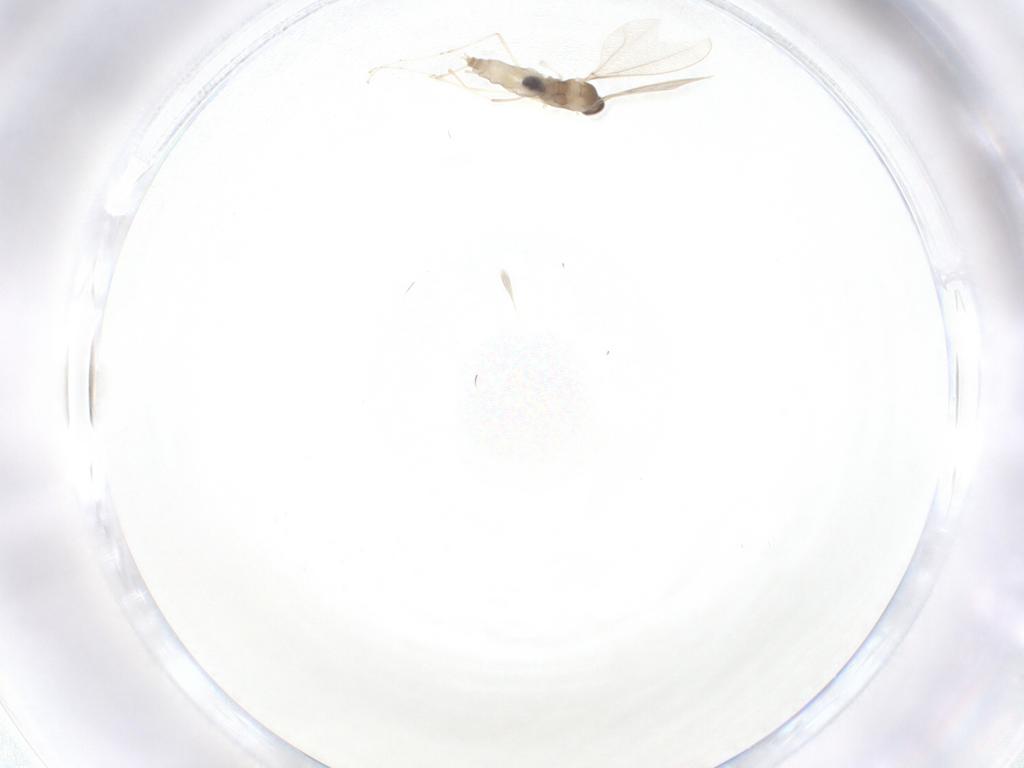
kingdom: Animalia
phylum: Arthropoda
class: Insecta
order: Diptera
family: Cecidomyiidae
